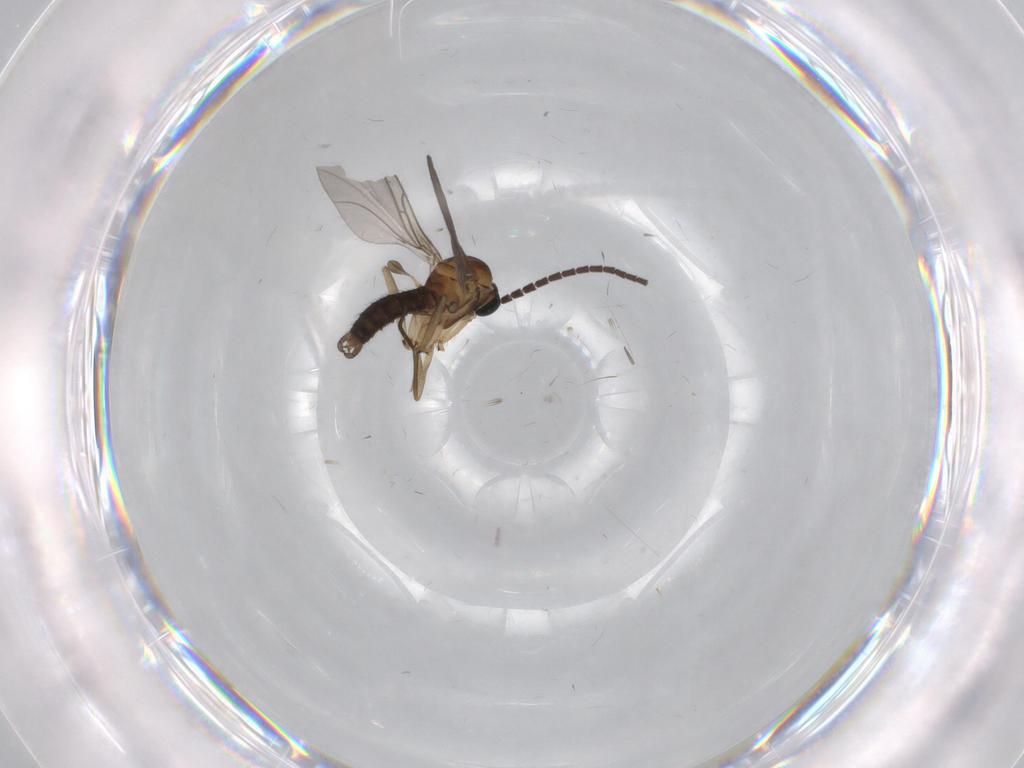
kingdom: Animalia
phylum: Arthropoda
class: Insecta
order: Diptera
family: Sciaridae
